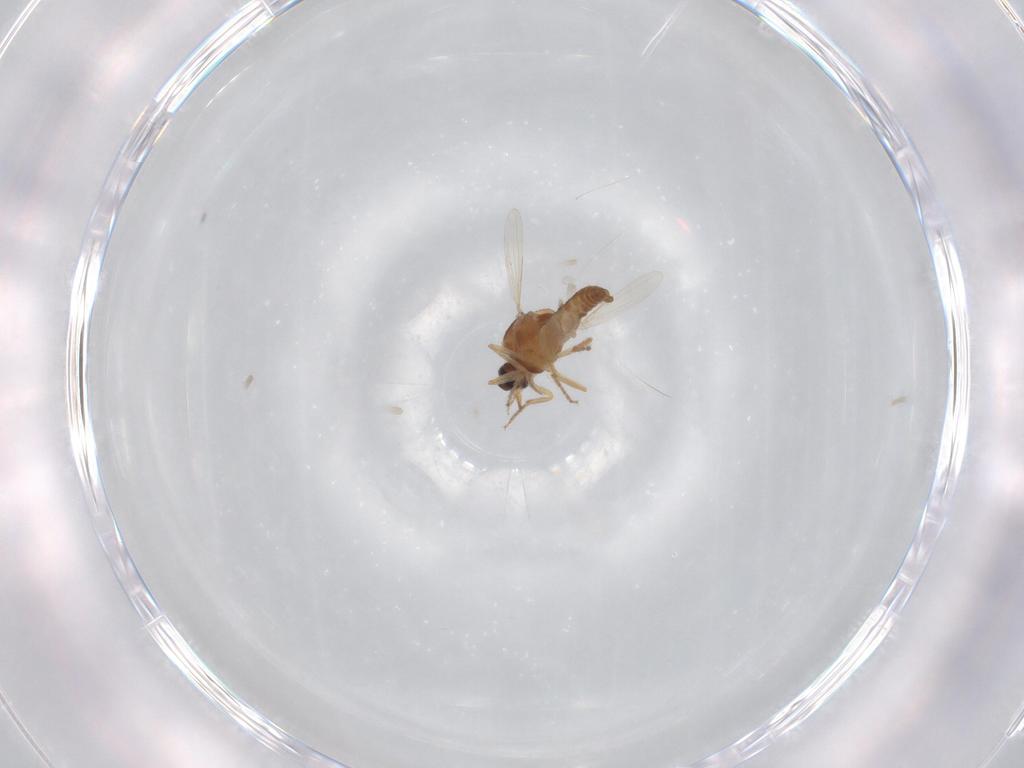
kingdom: Animalia
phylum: Arthropoda
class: Insecta
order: Diptera
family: Ceratopogonidae
